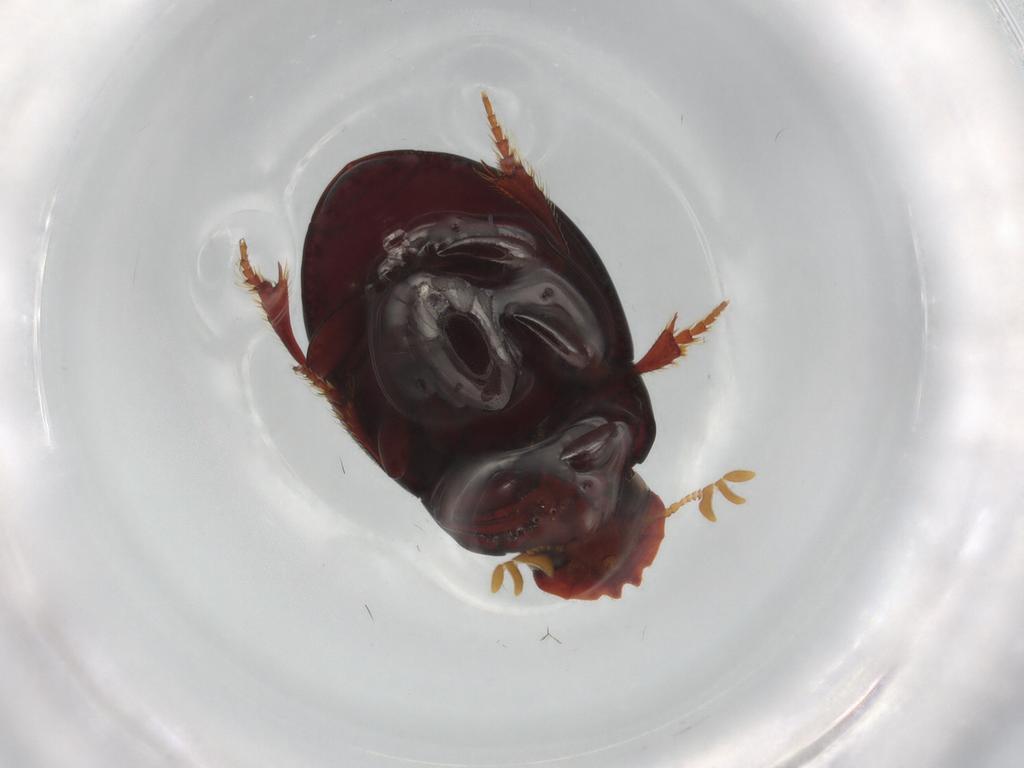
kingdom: Animalia
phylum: Arthropoda
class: Insecta
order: Coleoptera
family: Scarabaeidae
